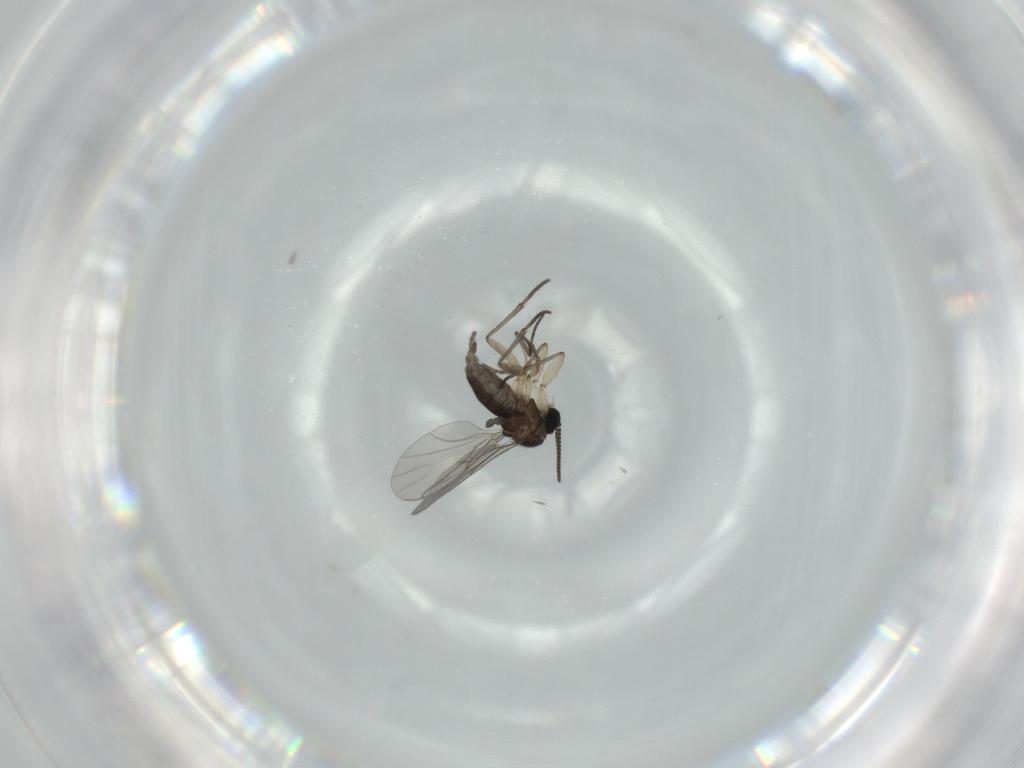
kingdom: Animalia
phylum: Arthropoda
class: Insecta
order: Diptera
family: Sciaridae
